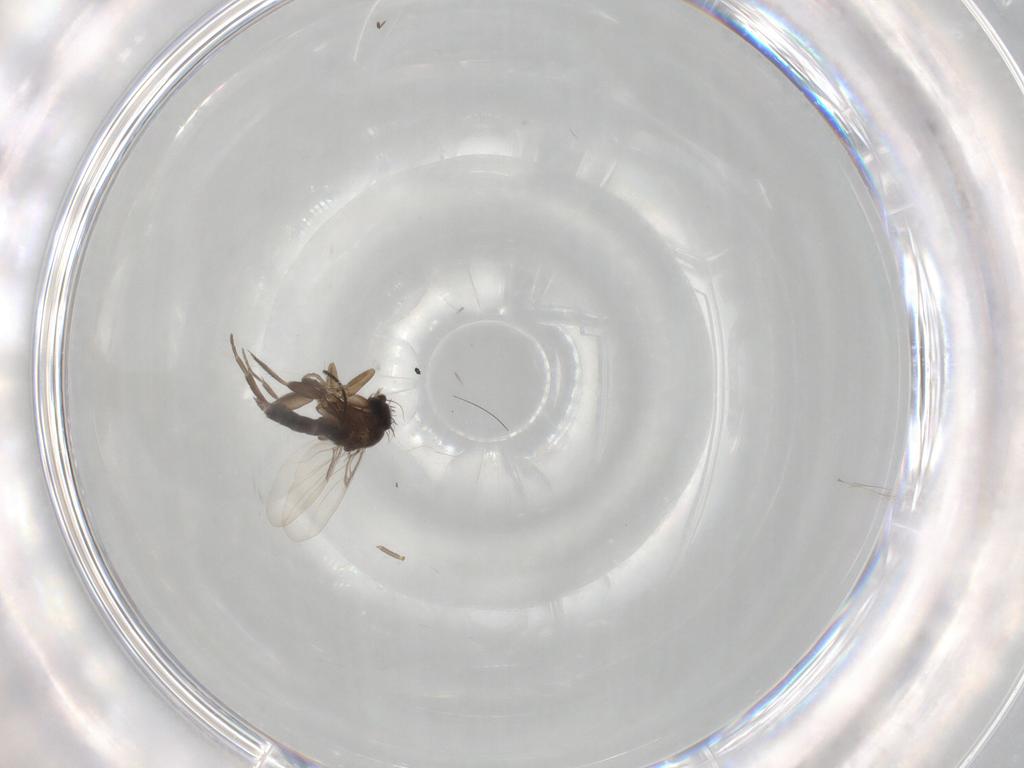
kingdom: Animalia
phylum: Arthropoda
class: Insecta
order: Diptera
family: Phoridae
